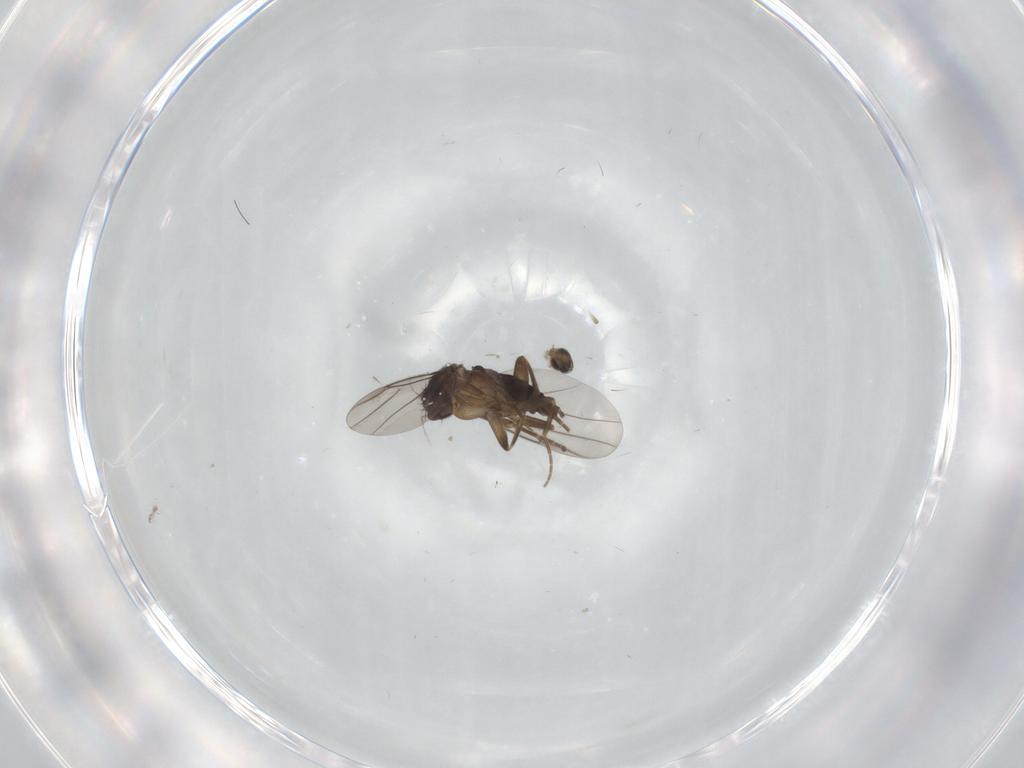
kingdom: Animalia
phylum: Arthropoda
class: Insecta
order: Diptera
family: Cecidomyiidae
